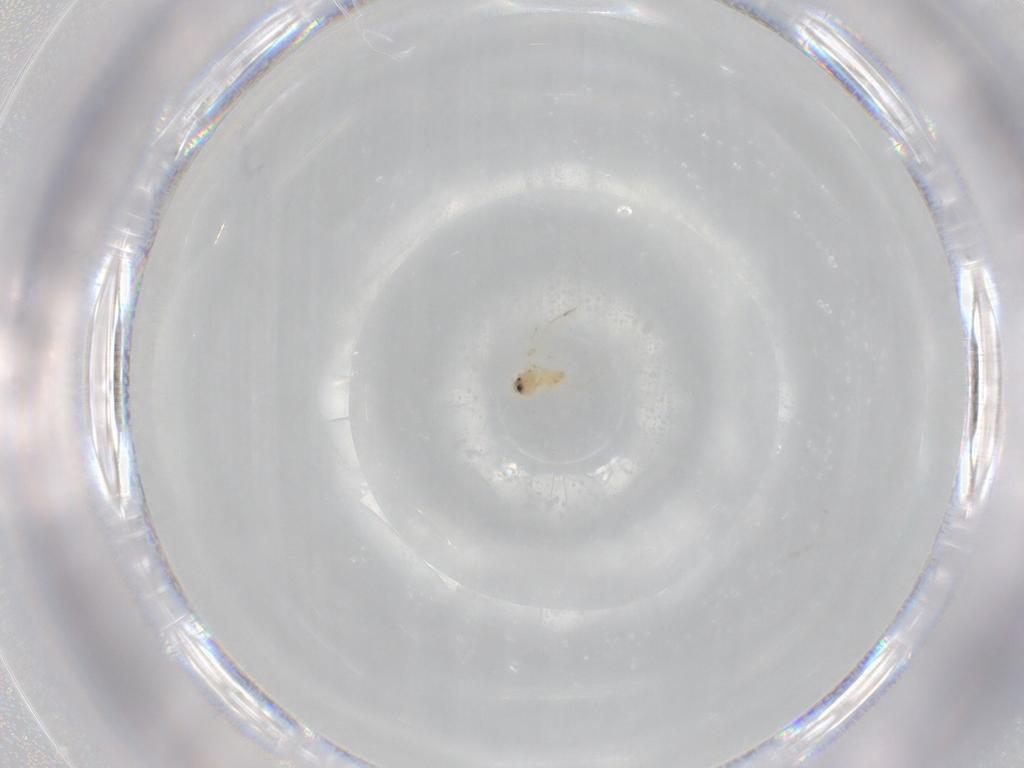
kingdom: Animalia
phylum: Arthropoda
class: Insecta
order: Hemiptera
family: Aleyrodidae
